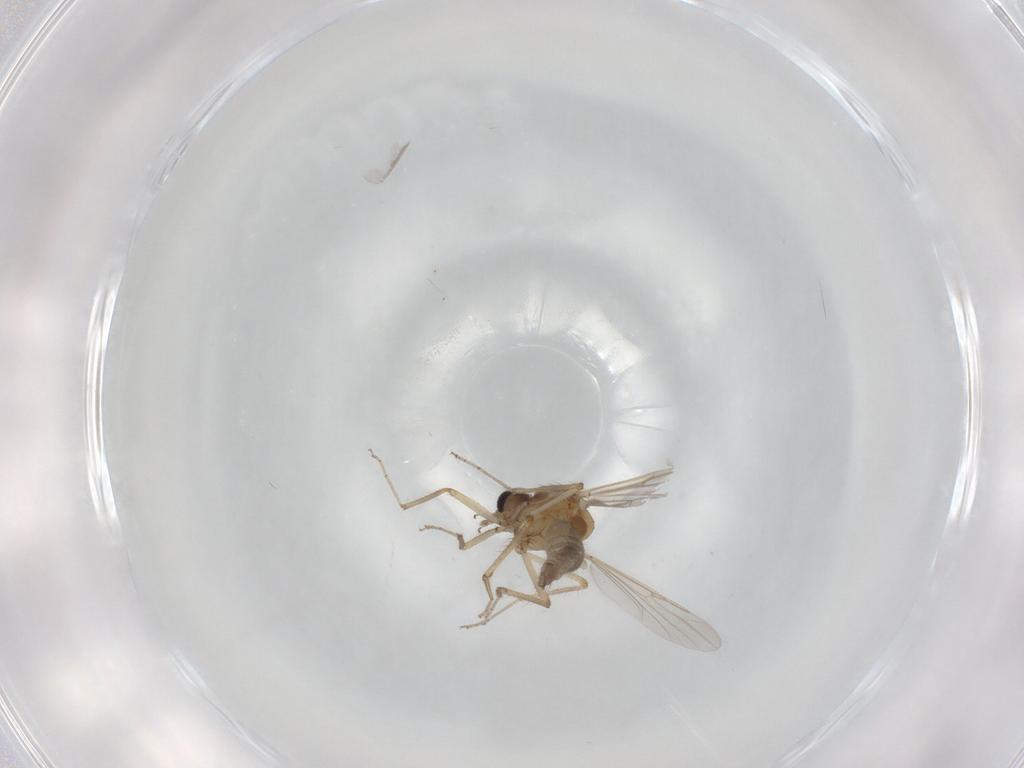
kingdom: Animalia
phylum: Arthropoda
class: Insecta
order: Diptera
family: Ceratopogonidae
